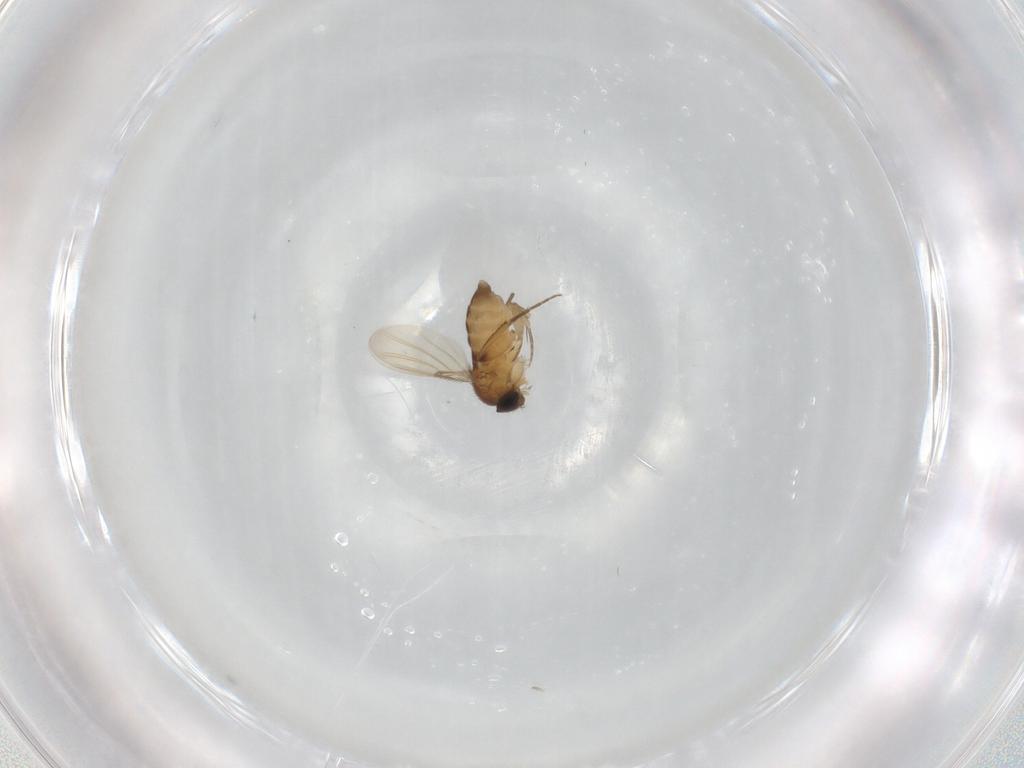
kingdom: Animalia
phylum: Arthropoda
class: Insecta
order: Diptera
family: Phoridae
